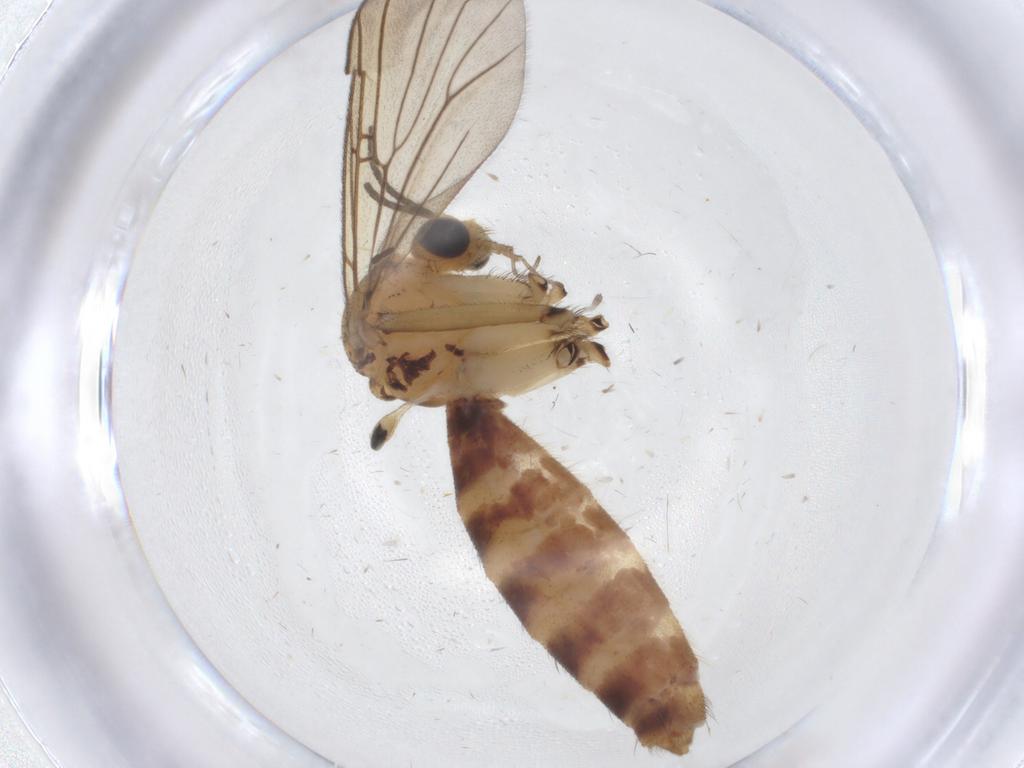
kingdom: Animalia
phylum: Arthropoda
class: Insecta
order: Diptera
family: Mycetophilidae
